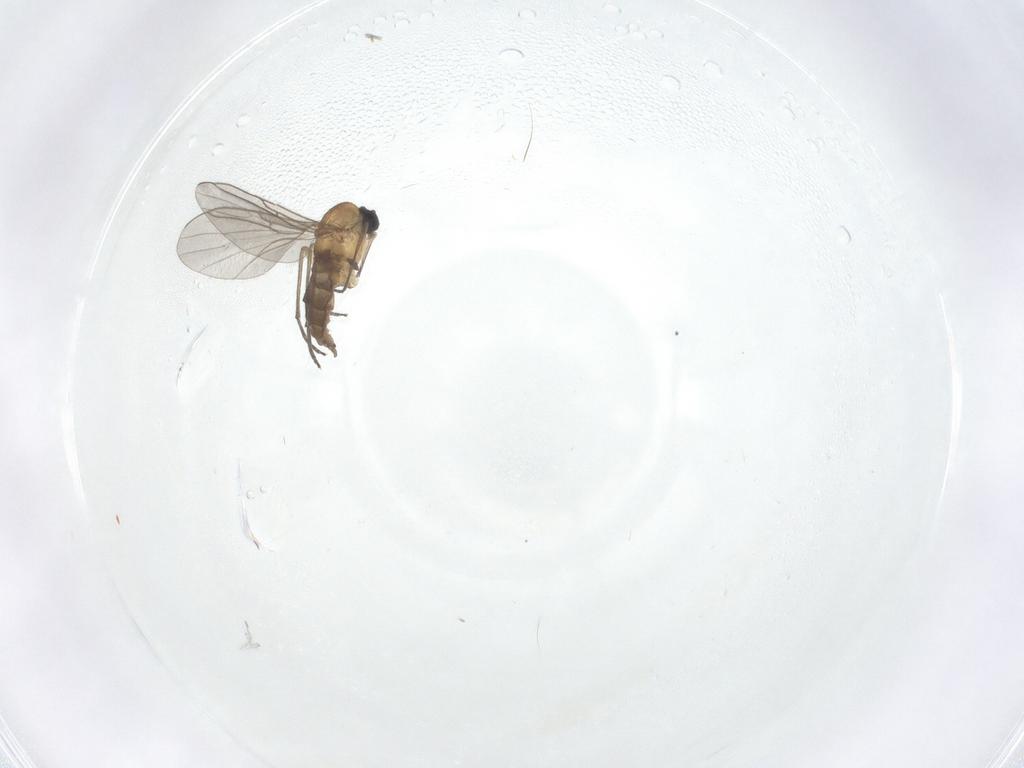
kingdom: Animalia
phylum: Arthropoda
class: Insecta
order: Diptera
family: Sciaridae
